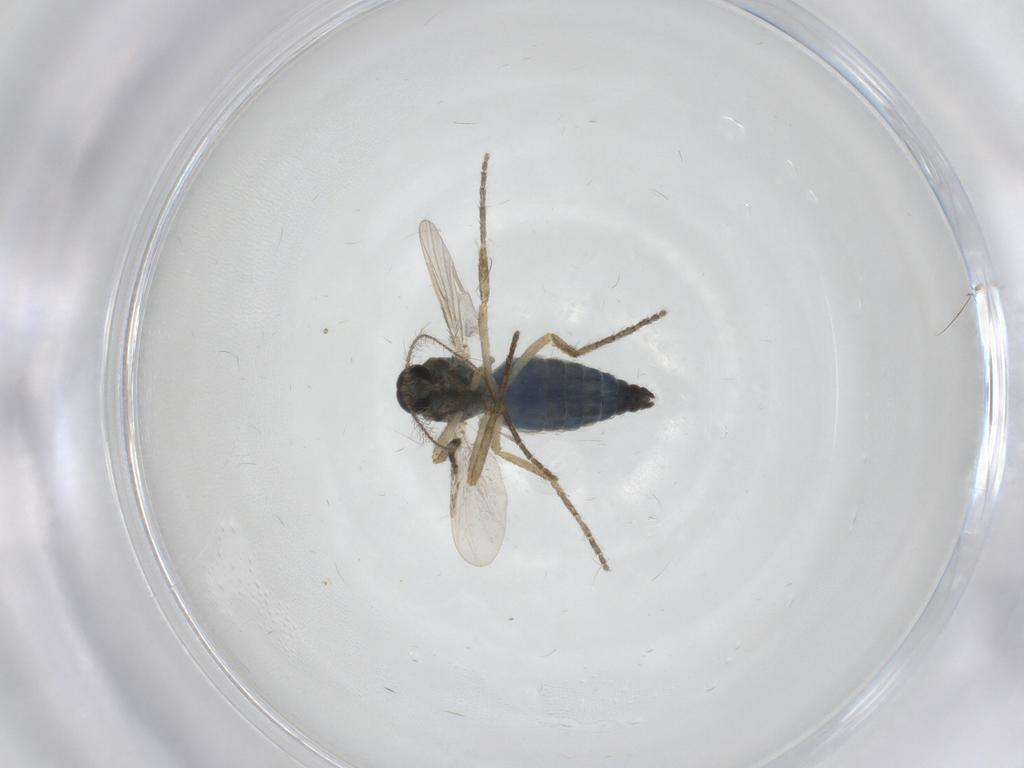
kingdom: Animalia
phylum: Arthropoda
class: Insecta
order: Diptera
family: Ceratopogonidae
